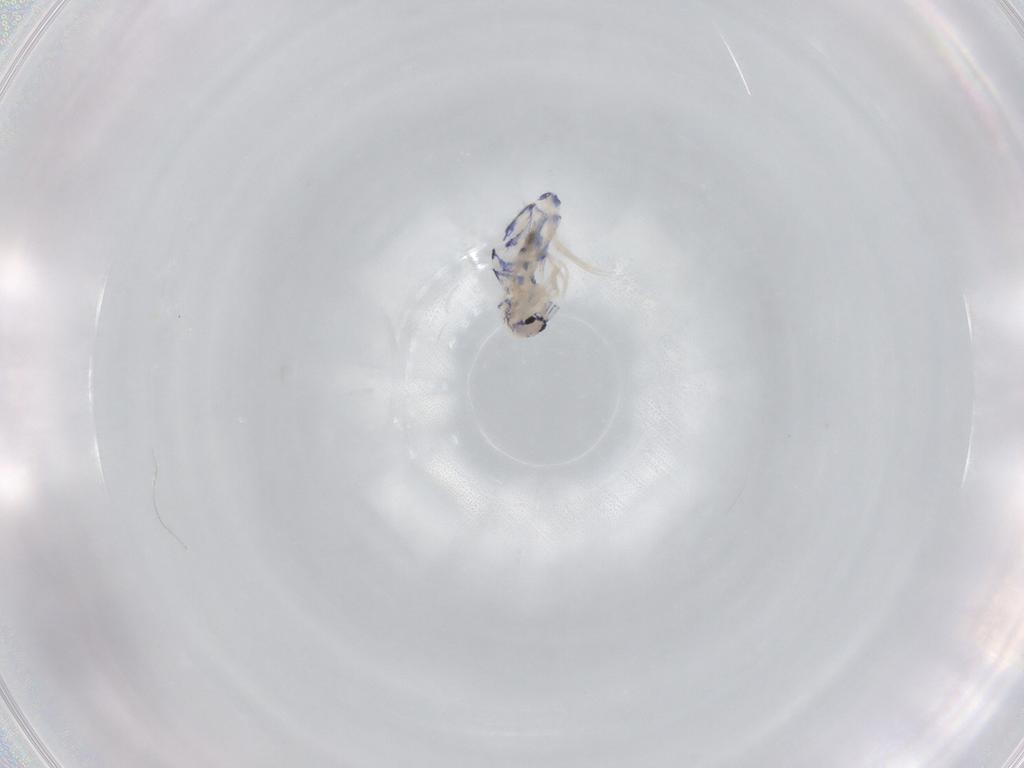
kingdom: Animalia
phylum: Arthropoda
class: Collembola
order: Entomobryomorpha
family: Entomobryidae
